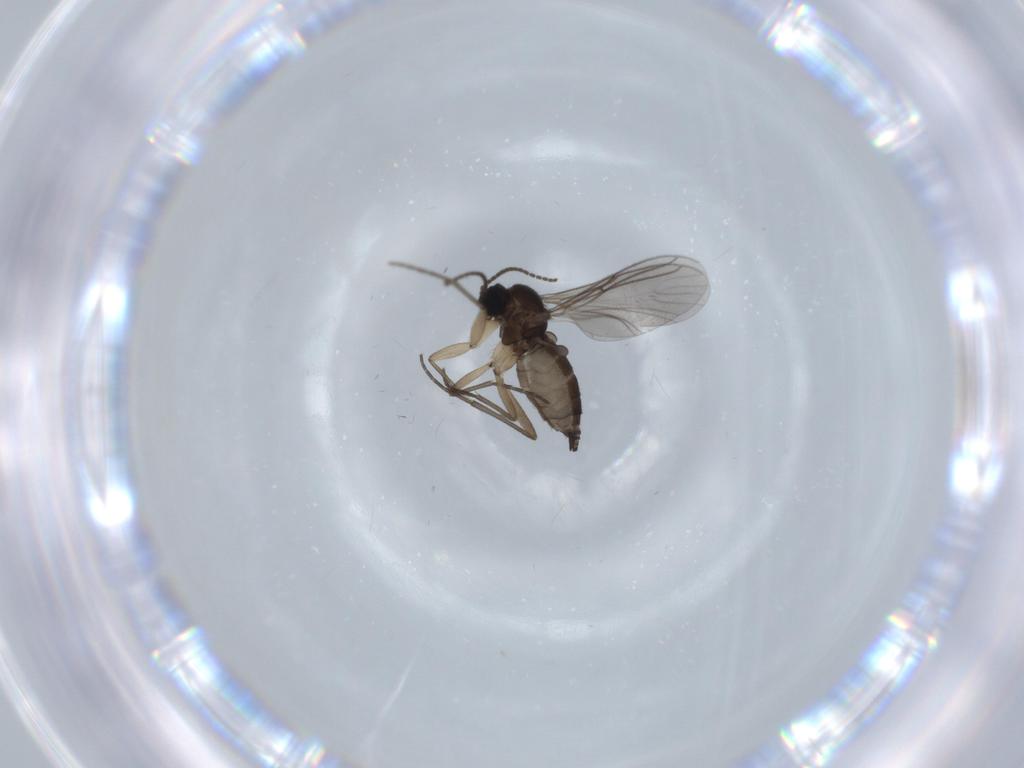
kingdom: Animalia
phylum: Arthropoda
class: Insecta
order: Diptera
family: Sciaridae
